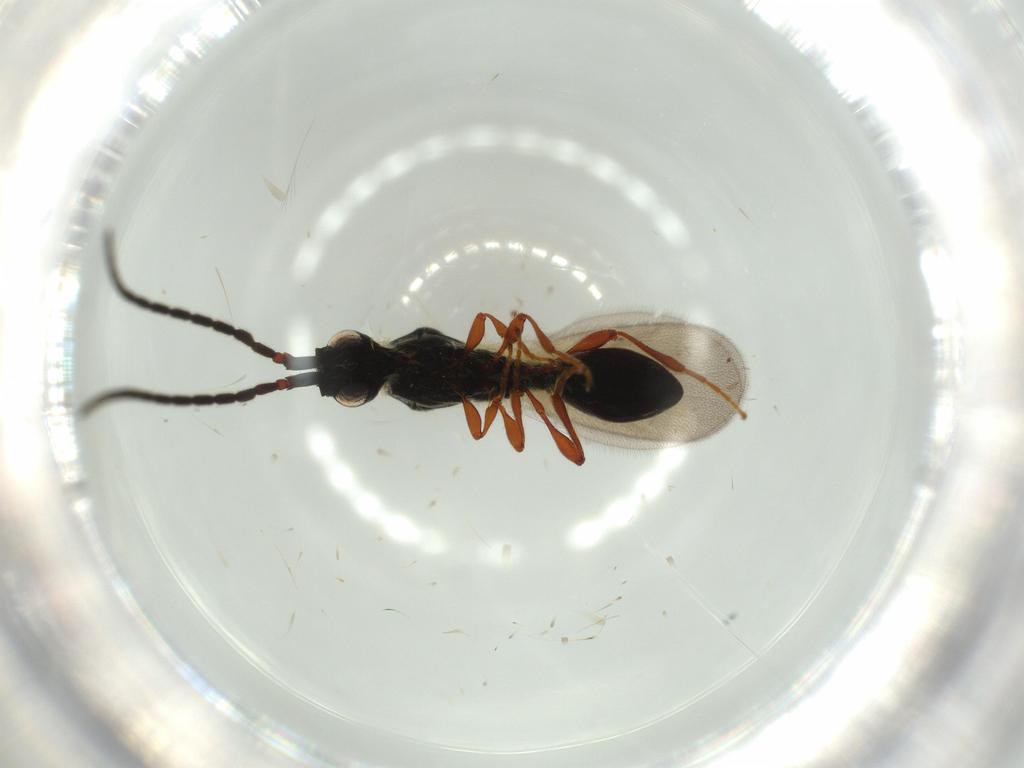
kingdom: Animalia
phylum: Arthropoda
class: Insecta
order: Hymenoptera
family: Diapriidae
